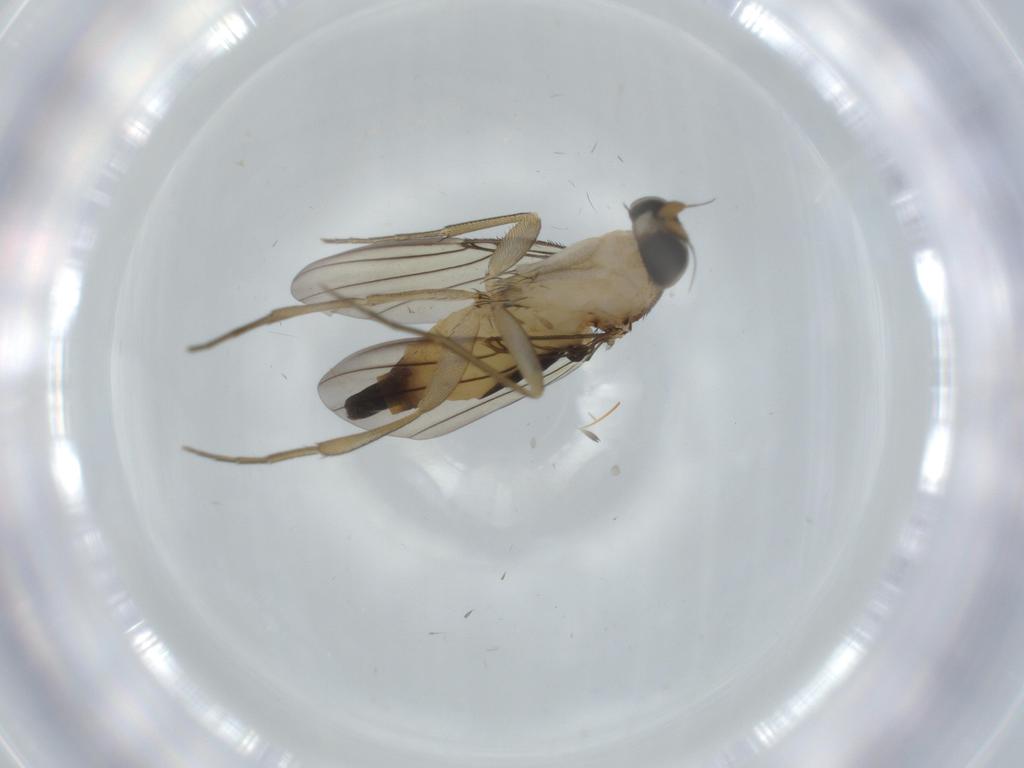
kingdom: Animalia
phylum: Arthropoda
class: Insecta
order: Diptera
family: Phoridae
